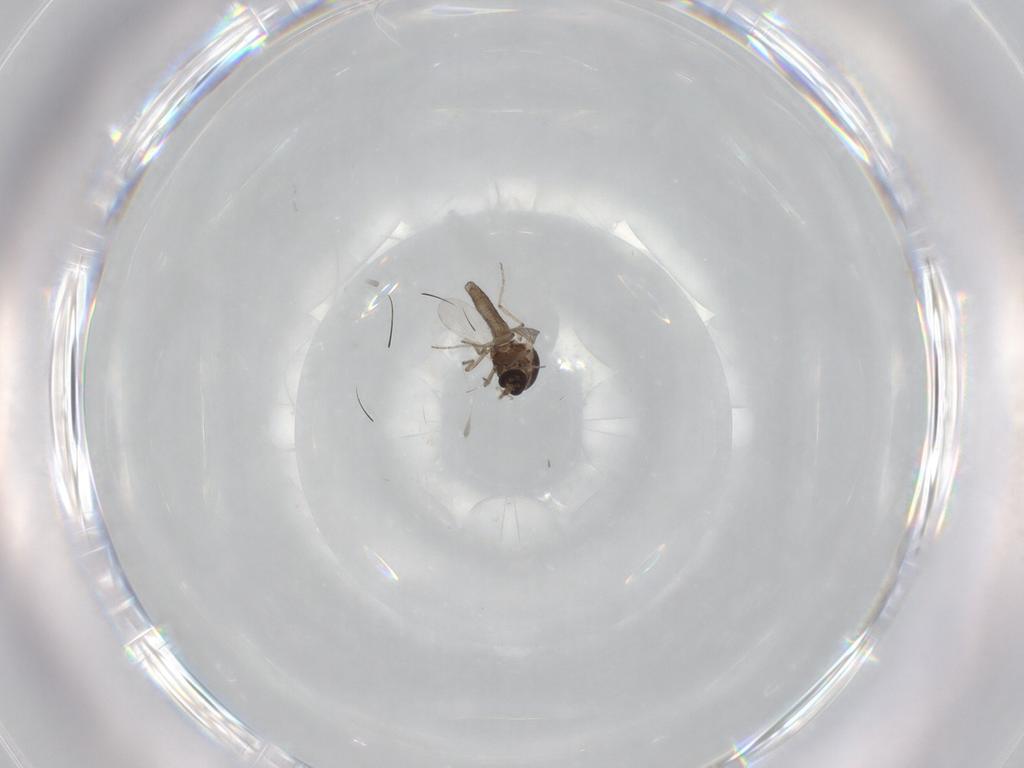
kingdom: Animalia
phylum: Arthropoda
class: Insecta
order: Diptera
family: Ceratopogonidae
